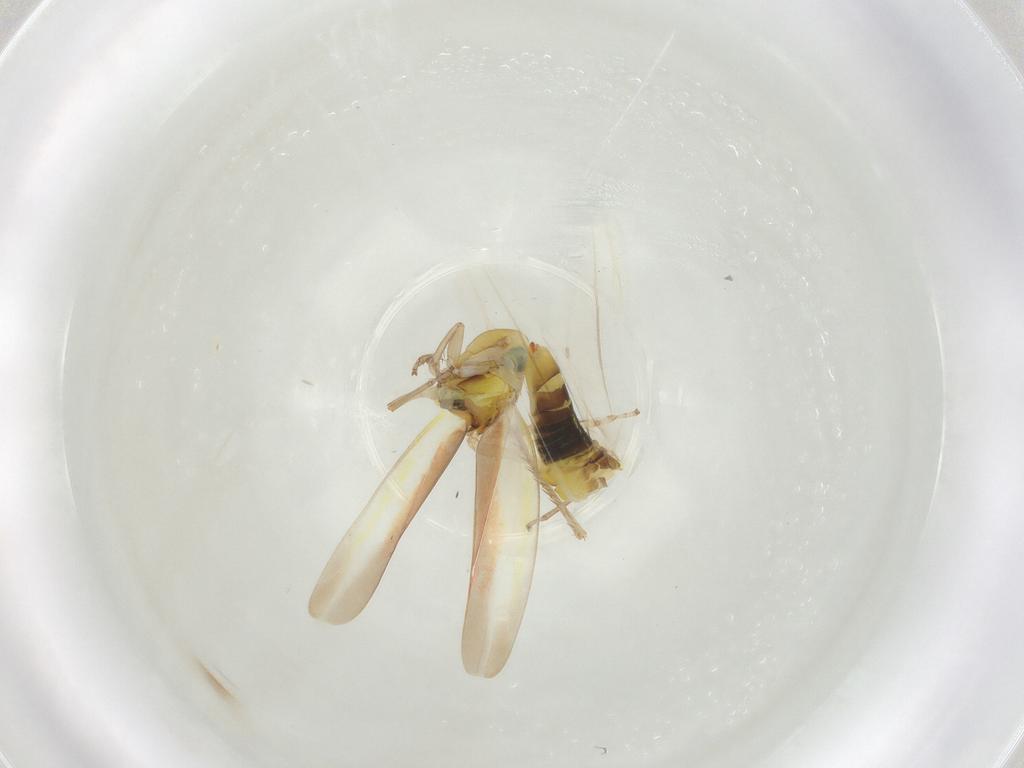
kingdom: Animalia
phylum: Arthropoda
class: Insecta
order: Hemiptera
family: Cicadellidae
